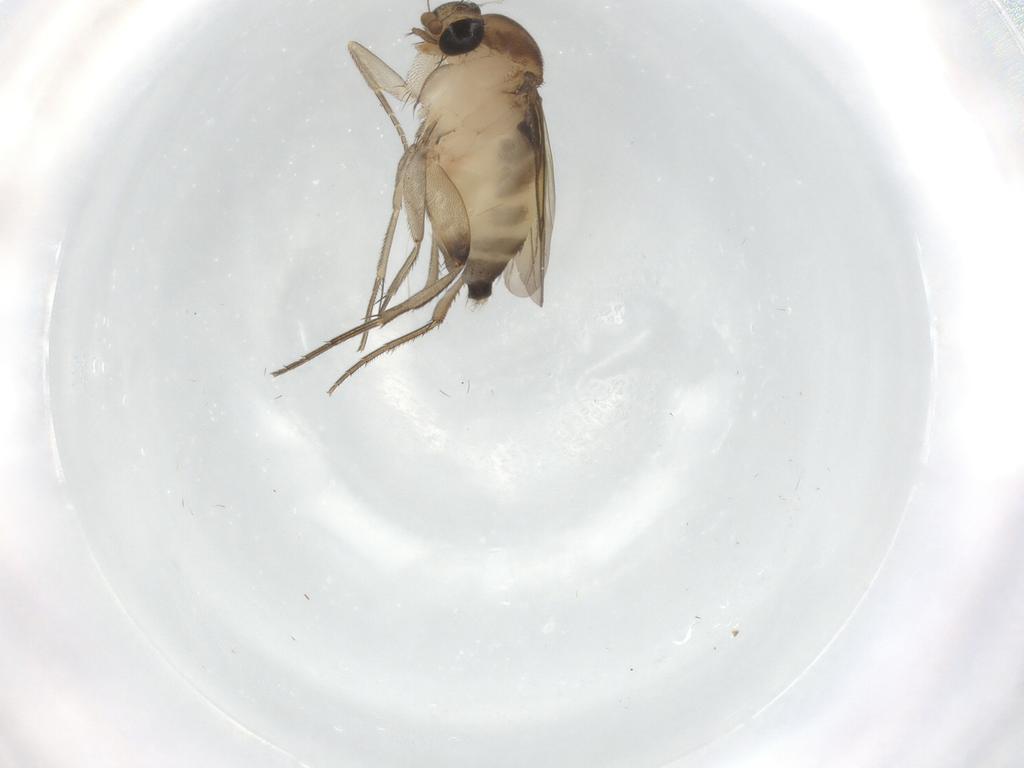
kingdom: Animalia
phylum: Arthropoda
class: Insecta
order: Diptera
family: Phoridae
